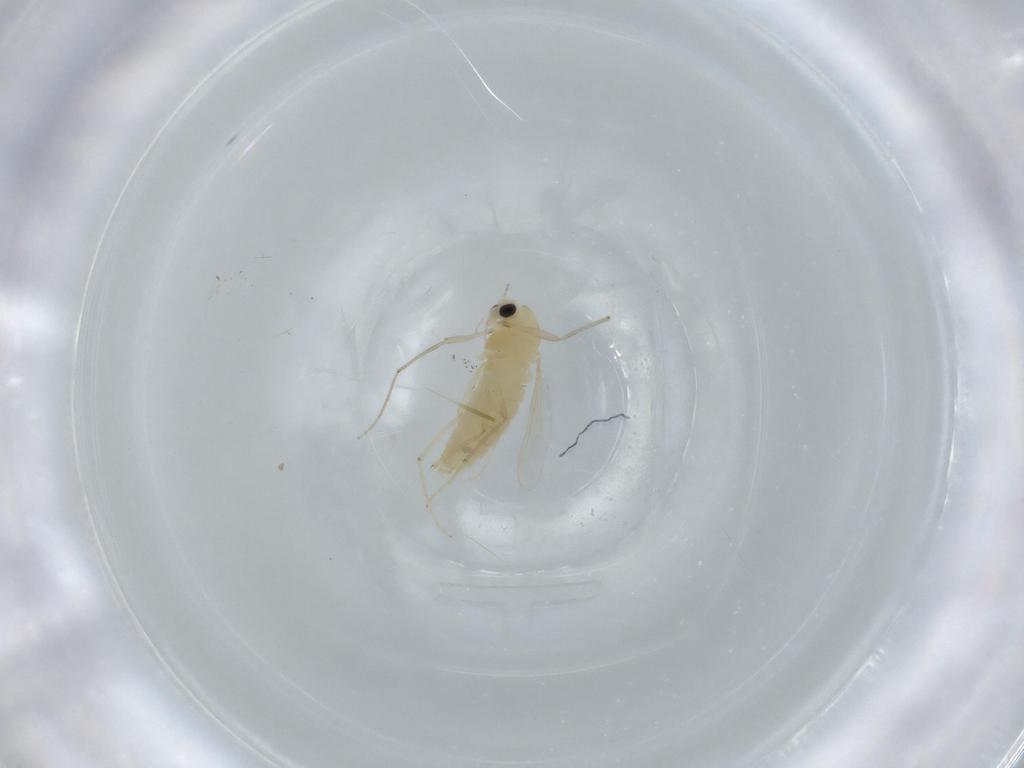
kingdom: Animalia
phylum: Arthropoda
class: Insecta
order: Diptera
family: Chironomidae
